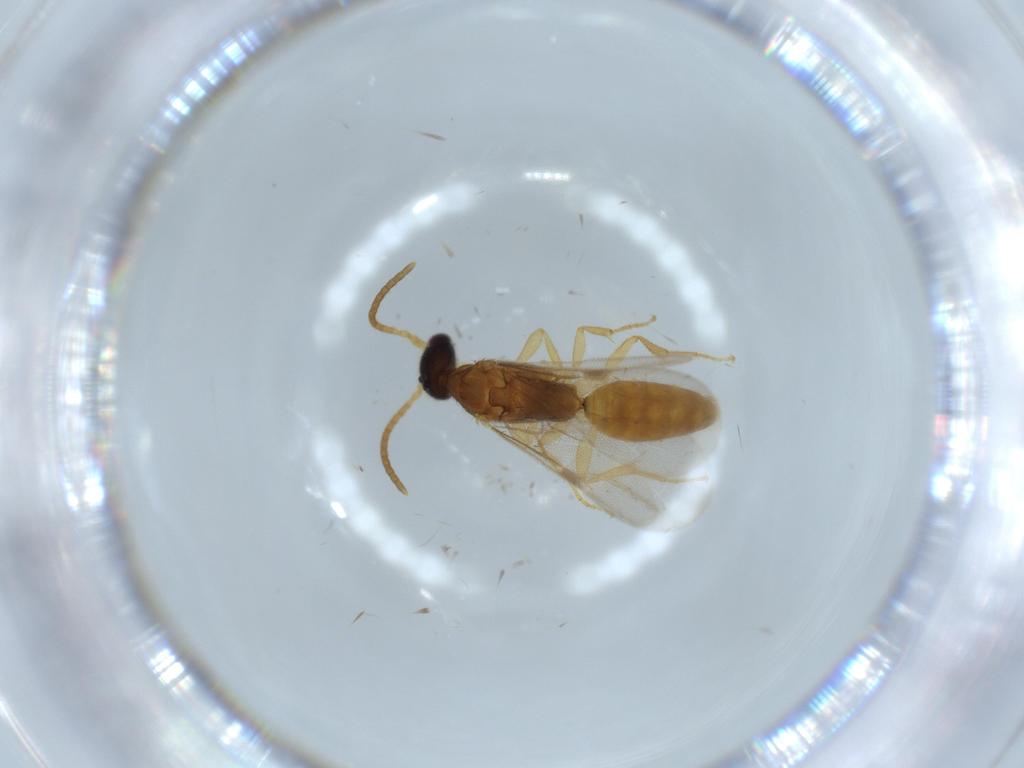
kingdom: Animalia
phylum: Arthropoda
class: Insecta
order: Hymenoptera
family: Bethylidae
